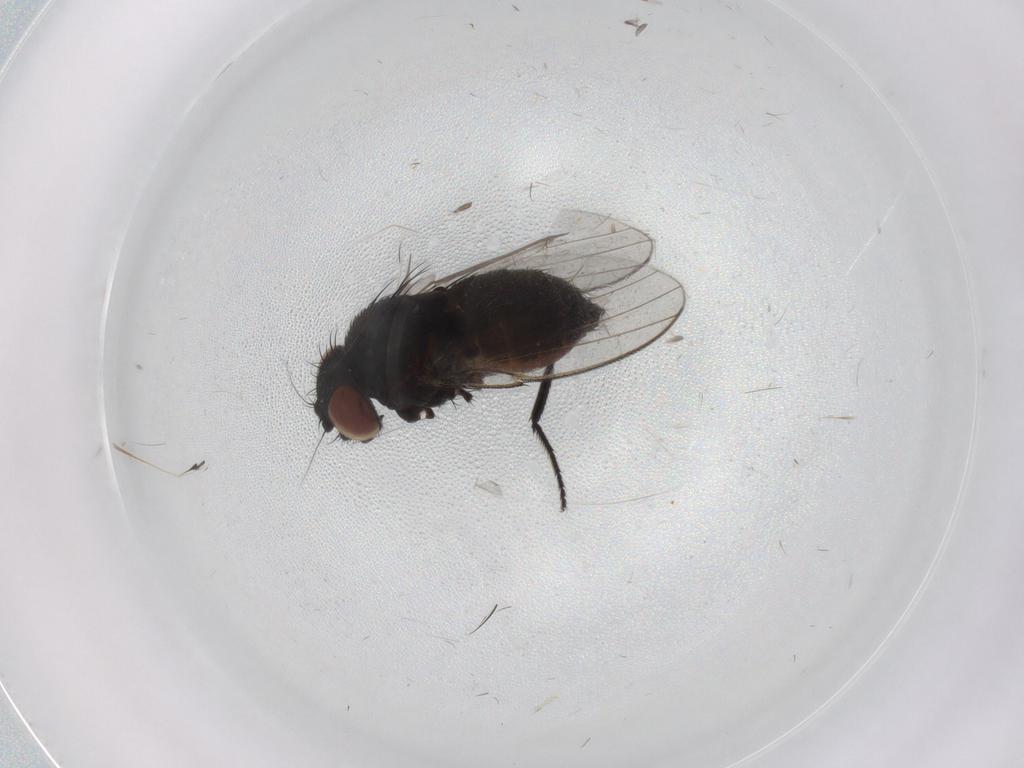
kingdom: Animalia
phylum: Arthropoda
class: Insecta
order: Diptera
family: Milichiidae
